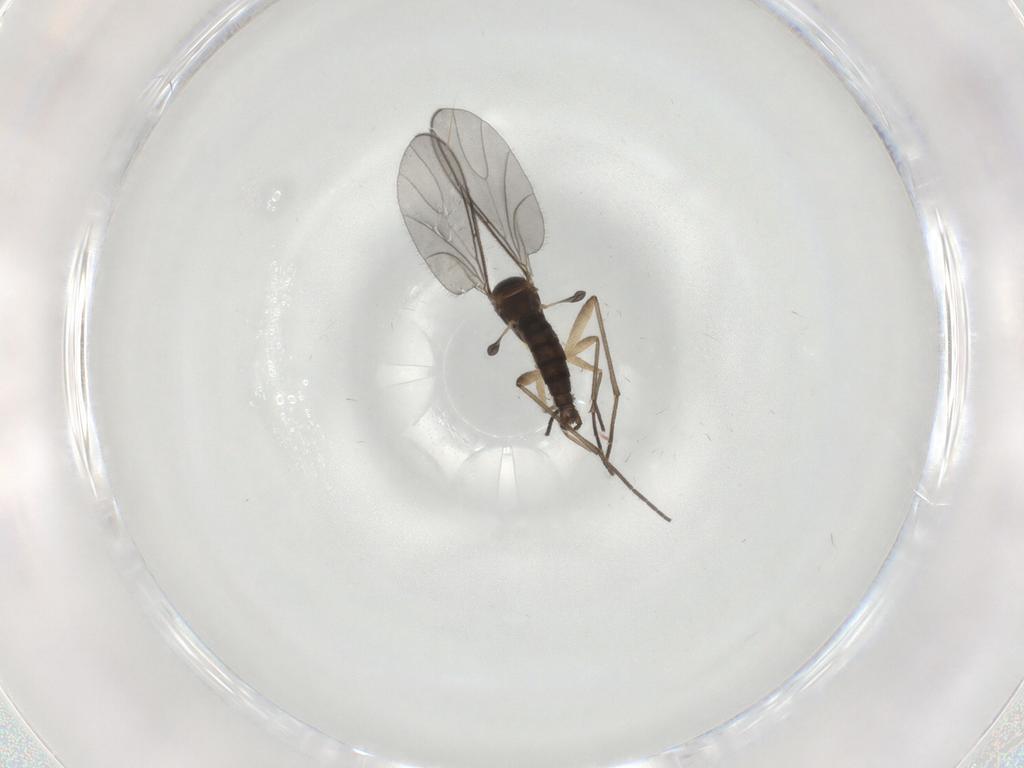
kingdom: Animalia
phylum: Arthropoda
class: Insecta
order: Diptera
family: Sciaridae
